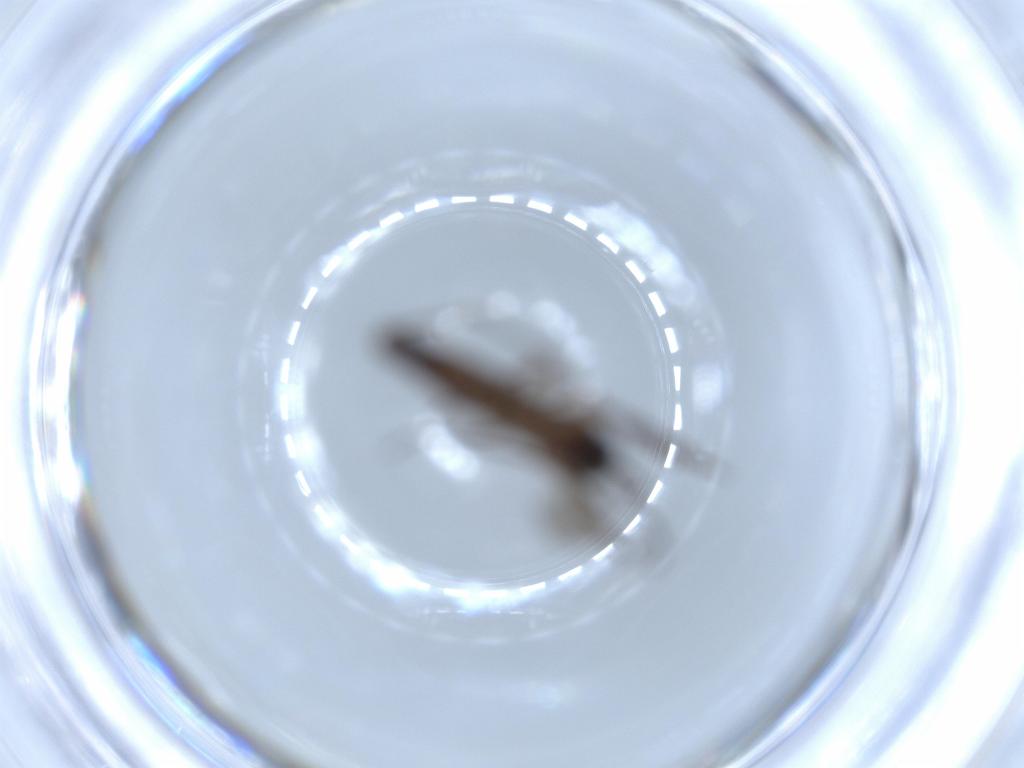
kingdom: Animalia
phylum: Arthropoda
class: Insecta
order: Diptera
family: Sciaridae
